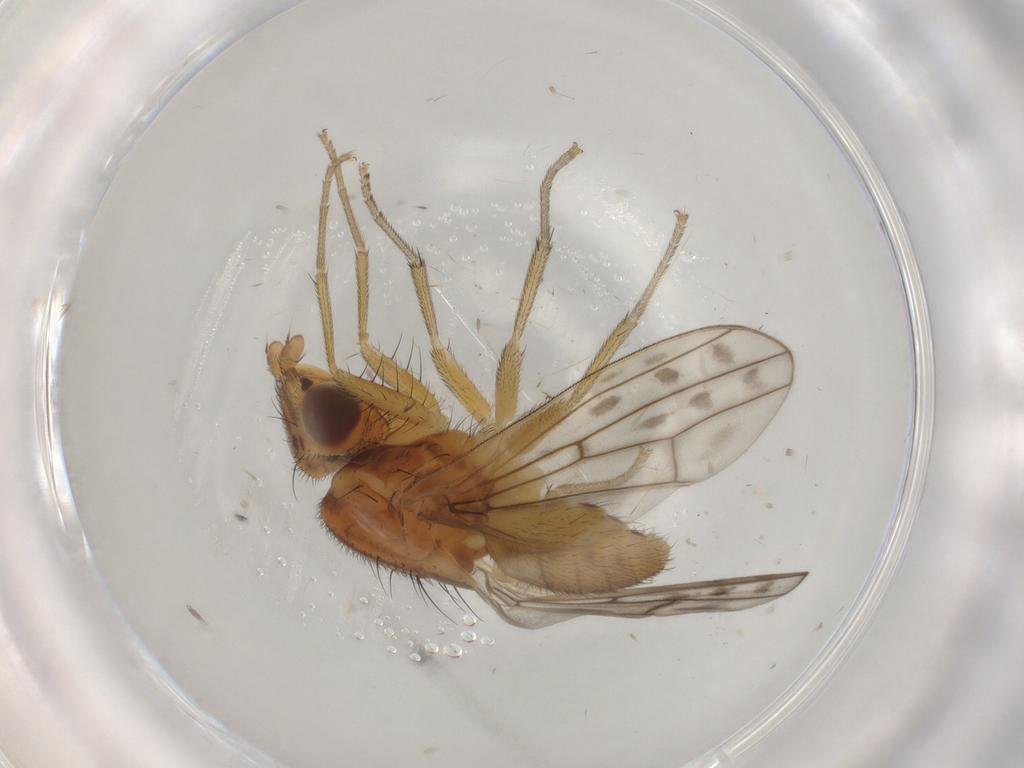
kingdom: Animalia
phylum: Arthropoda
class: Insecta
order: Diptera
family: Lauxaniidae
